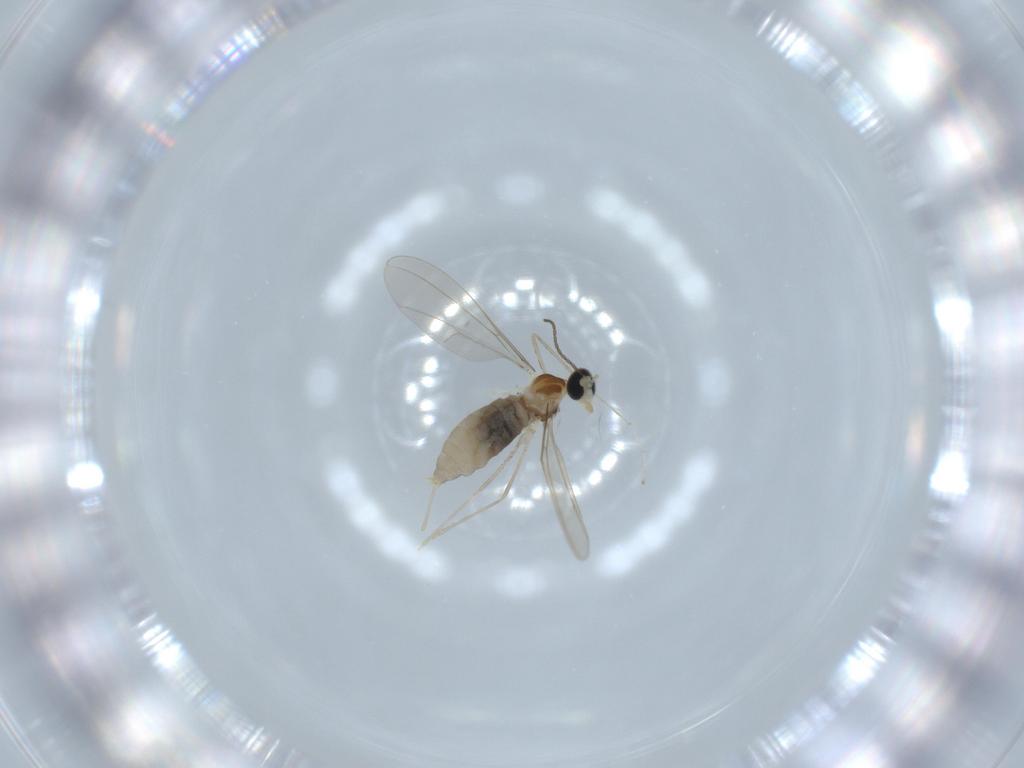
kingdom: Animalia
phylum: Arthropoda
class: Insecta
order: Diptera
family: Cecidomyiidae
